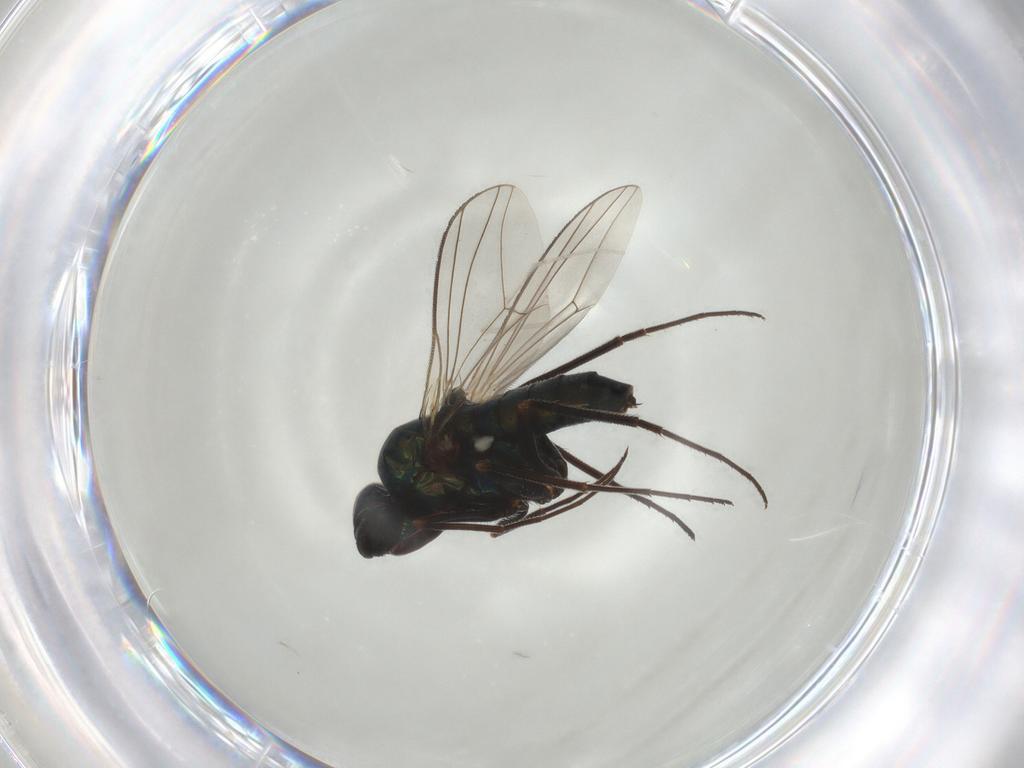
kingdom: Animalia
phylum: Arthropoda
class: Insecta
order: Diptera
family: Dolichopodidae
